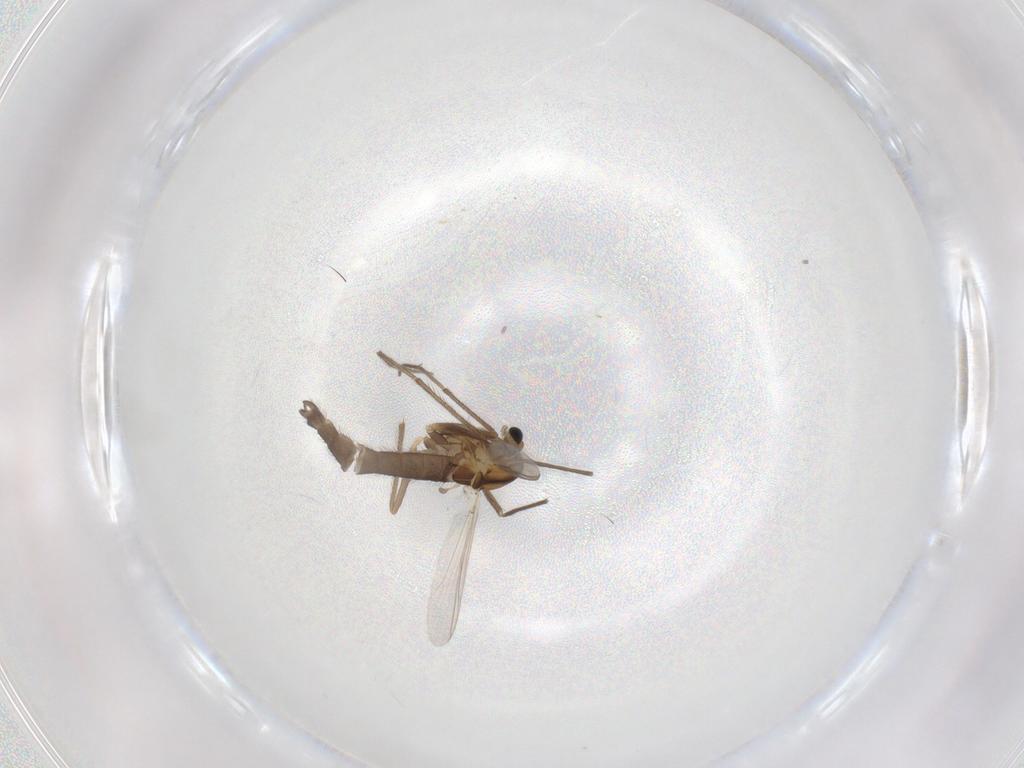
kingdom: Animalia
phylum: Arthropoda
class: Insecta
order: Diptera
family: Chironomidae
